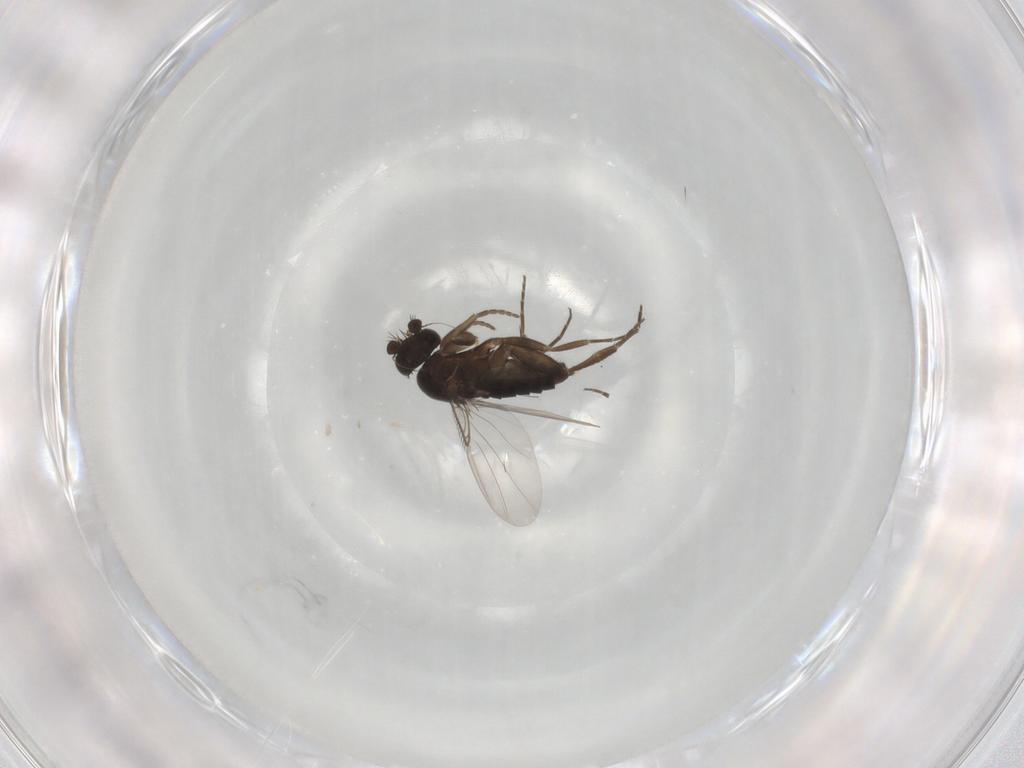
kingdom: Animalia
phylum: Arthropoda
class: Insecta
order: Diptera
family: Phoridae
